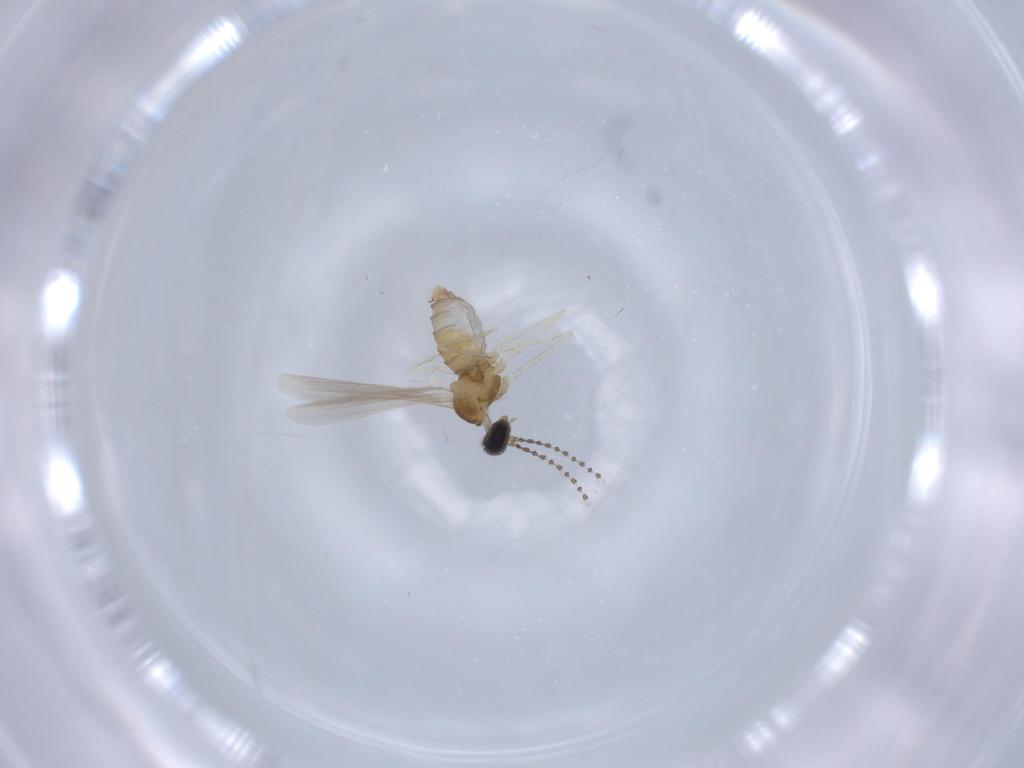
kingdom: Animalia
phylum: Arthropoda
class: Insecta
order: Diptera
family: Cecidomyiidae
